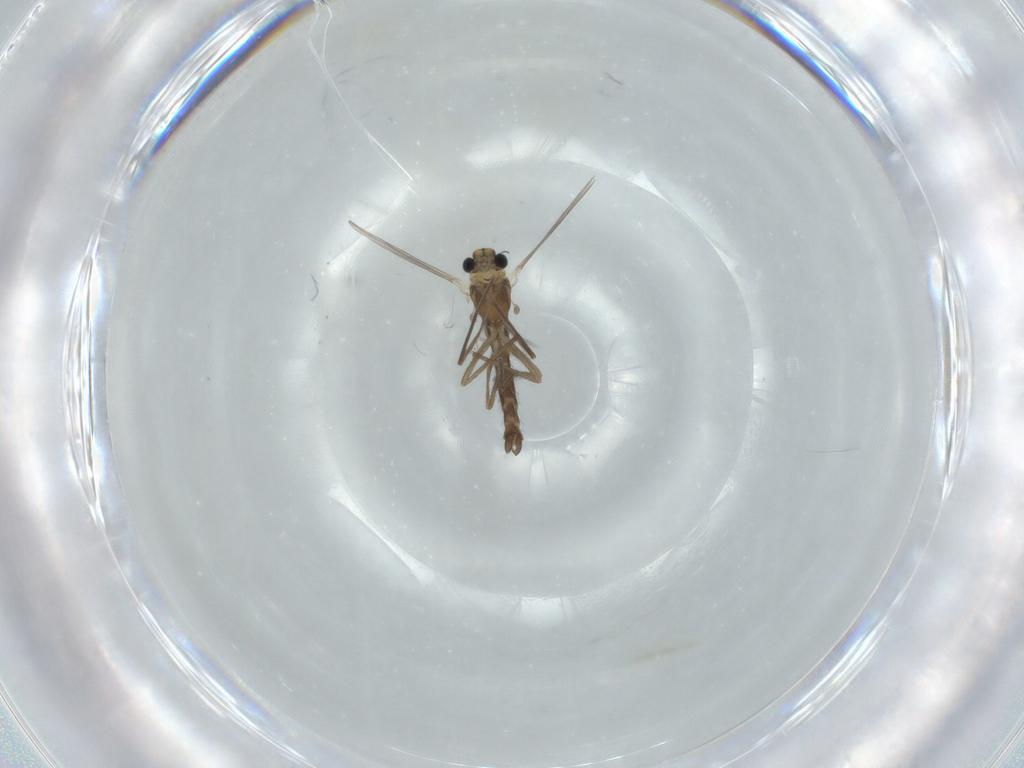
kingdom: Animalia
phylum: Arthropoda
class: Insecta
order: Diptera
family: Chironomidae
